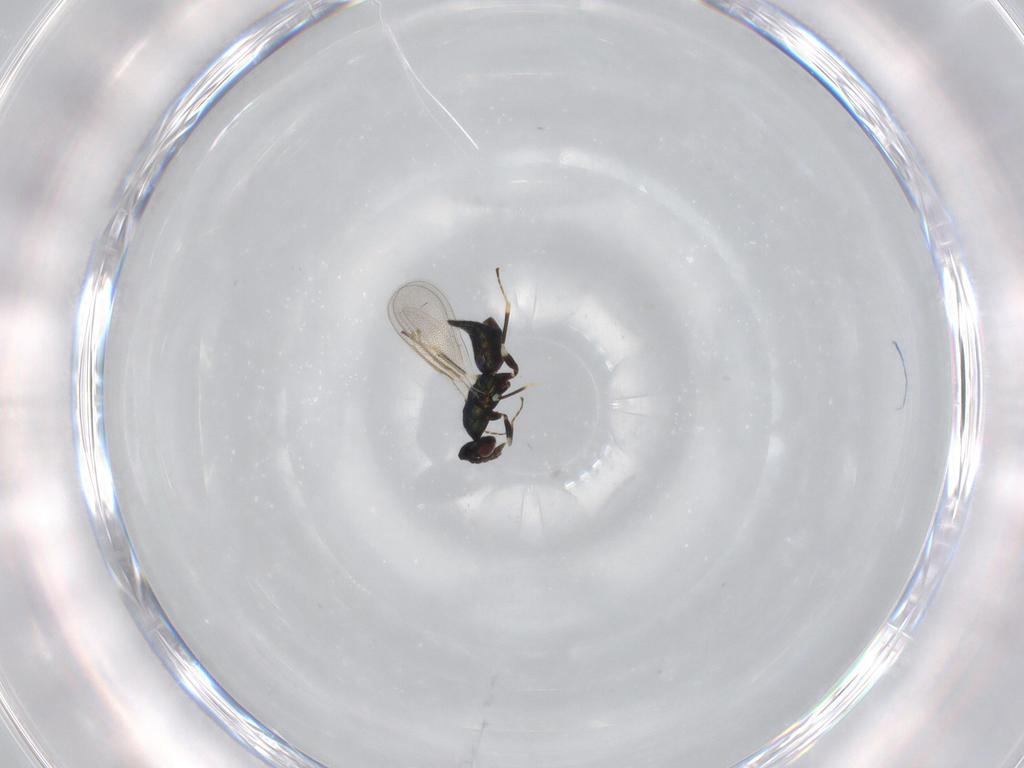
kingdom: Animalia
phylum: Arthropoda
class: Insecta
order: Hymenoptera
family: Eulophidae
